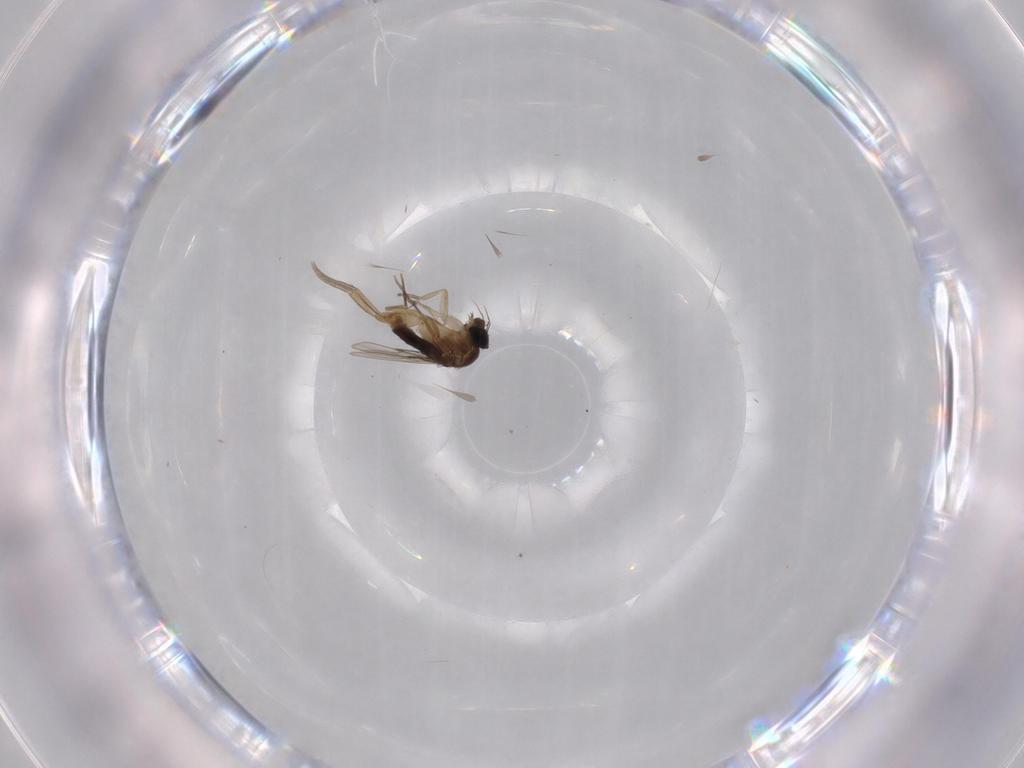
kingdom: Animalia
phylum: Arthropoda
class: Insecta
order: Diptera
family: Phoridae
